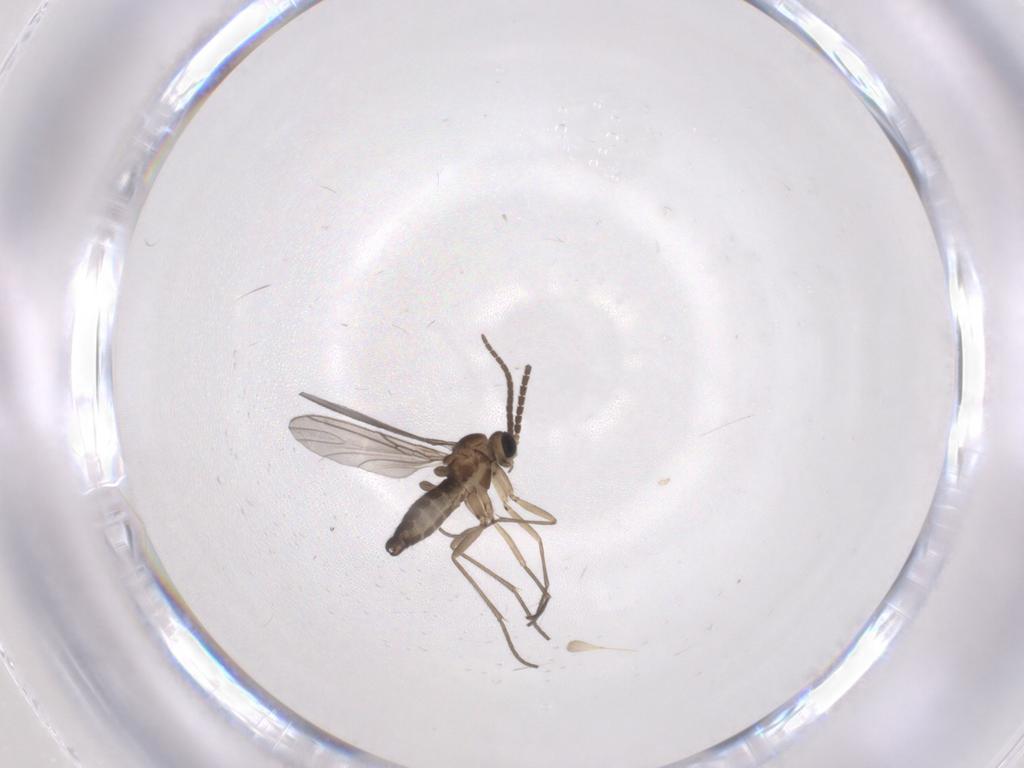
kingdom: Animalia
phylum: Arthropoda
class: Insecta
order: Diptera
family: Sciaridae
